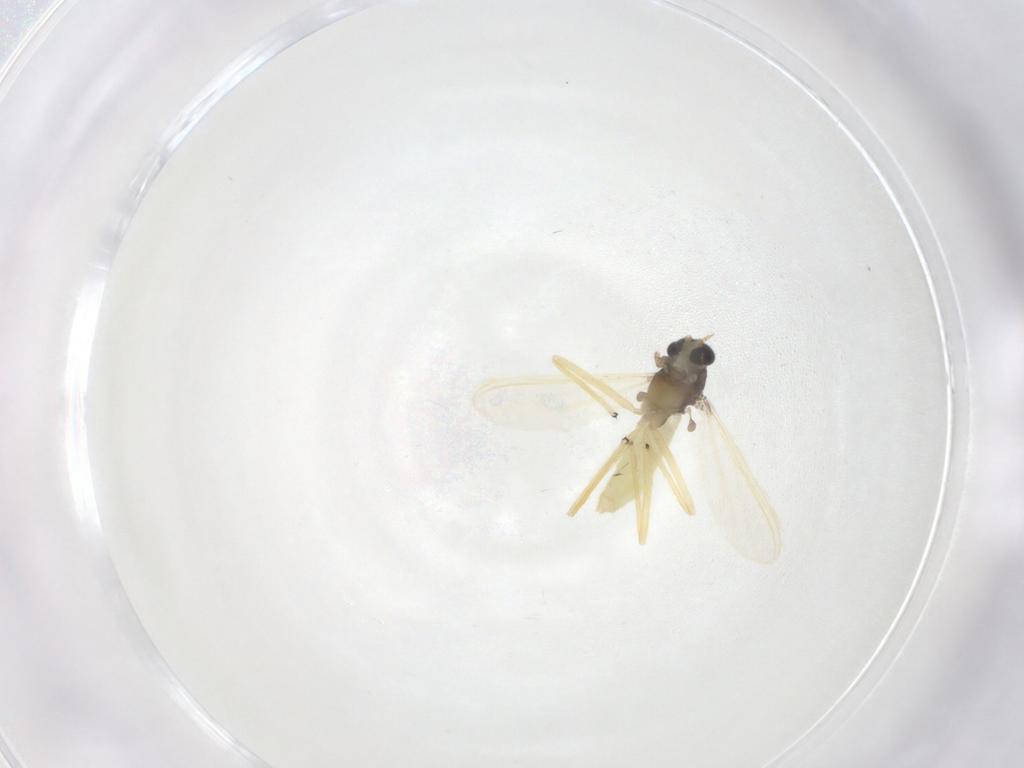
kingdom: Animalia
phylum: Arthropoda
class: Insecta
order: Diptera
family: Chironomidae
